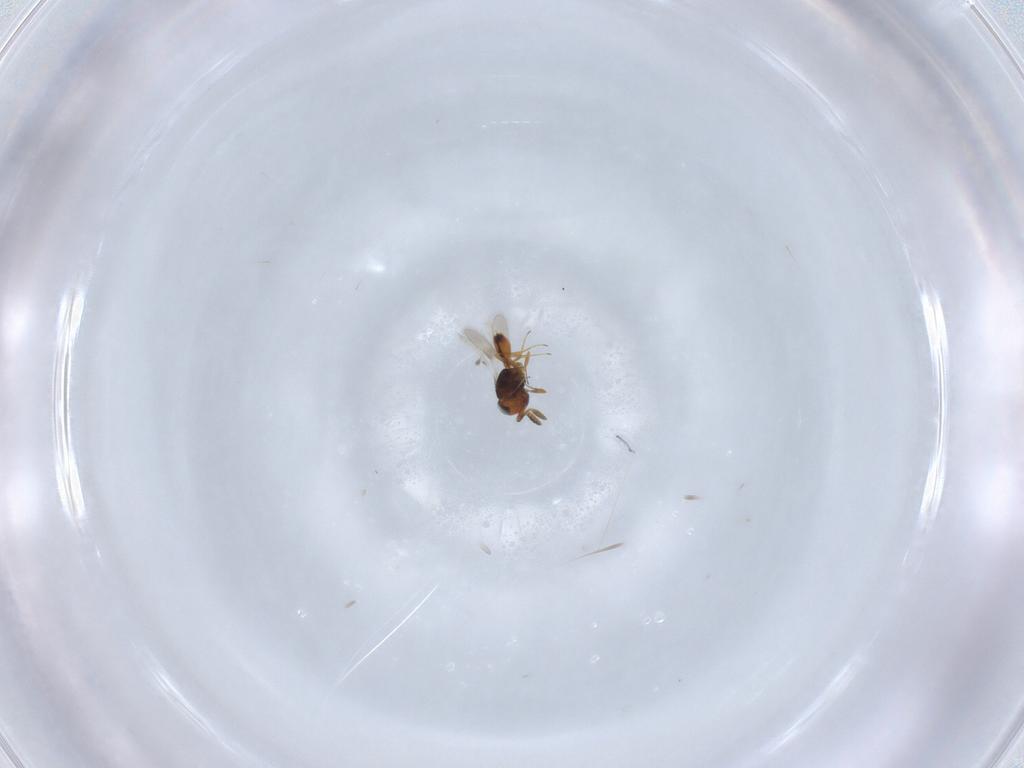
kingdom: Animalia
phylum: Arthropoda
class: Insecta
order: Hymenoptera
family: Scelionidae
